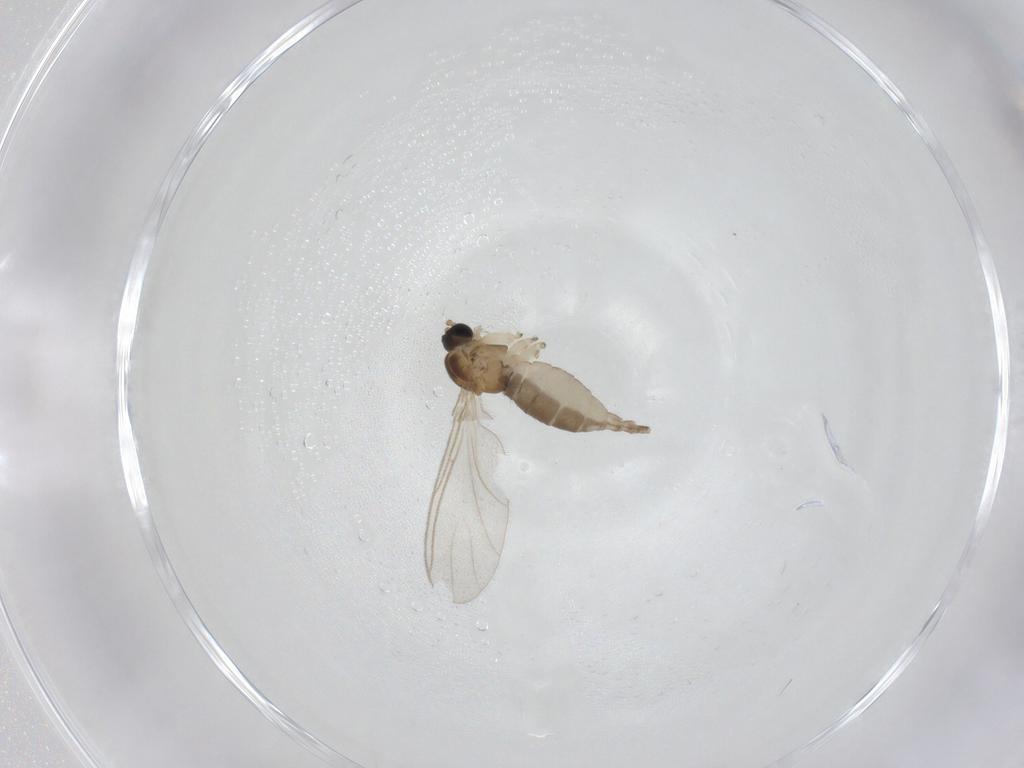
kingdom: Animalia
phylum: Arthropoda
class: Insecta
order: Diptera
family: Sciaridae
